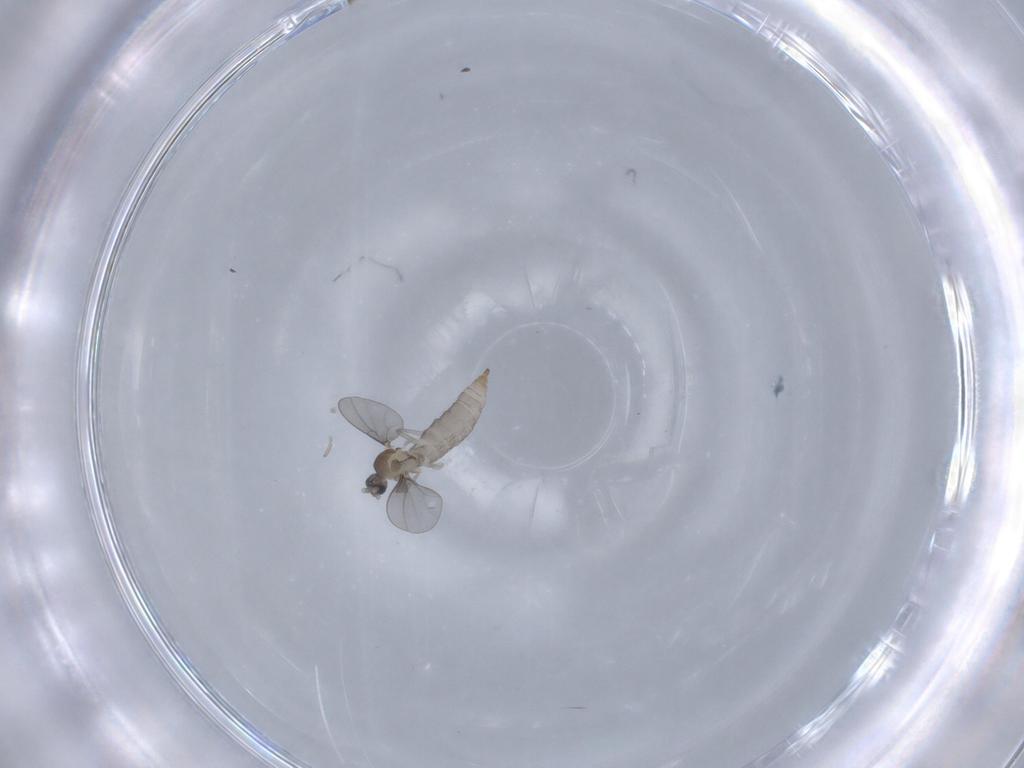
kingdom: Animalia
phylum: Arthropoda
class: Insecta
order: Diptera
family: Cecidomyiidae
